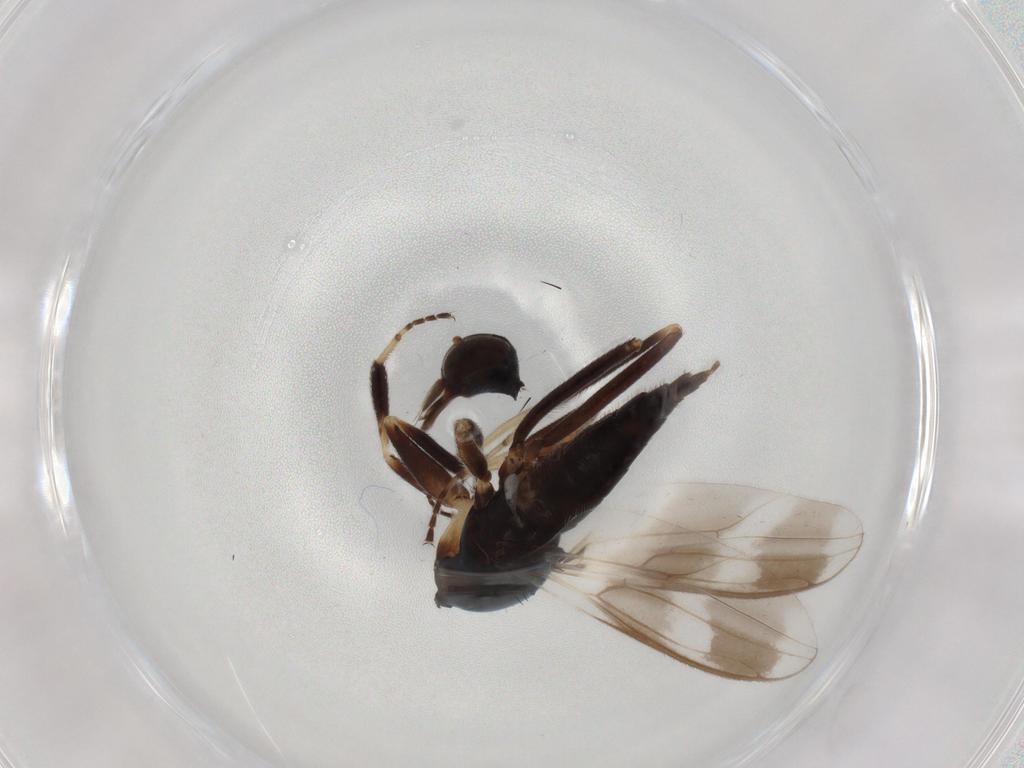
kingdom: Animalia
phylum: Arthropoda
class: Insecta
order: Diptera
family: Hybotidae
